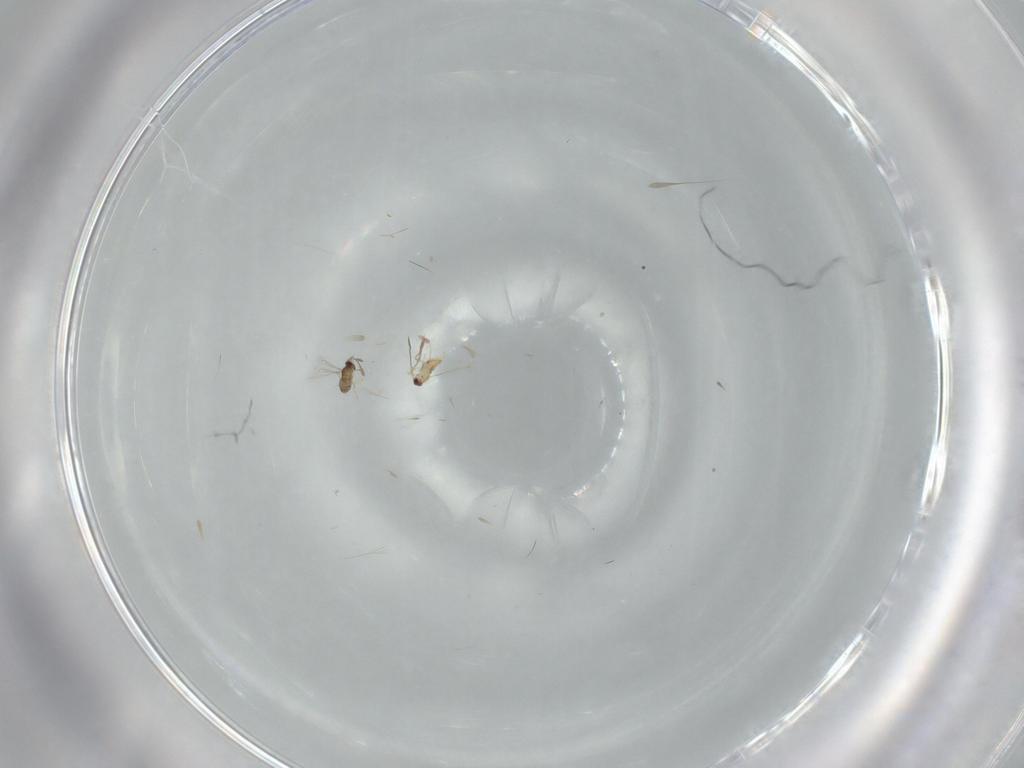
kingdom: Animalia
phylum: Arthropoda
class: Insecta
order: Hymenoptera
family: Mymaridae
